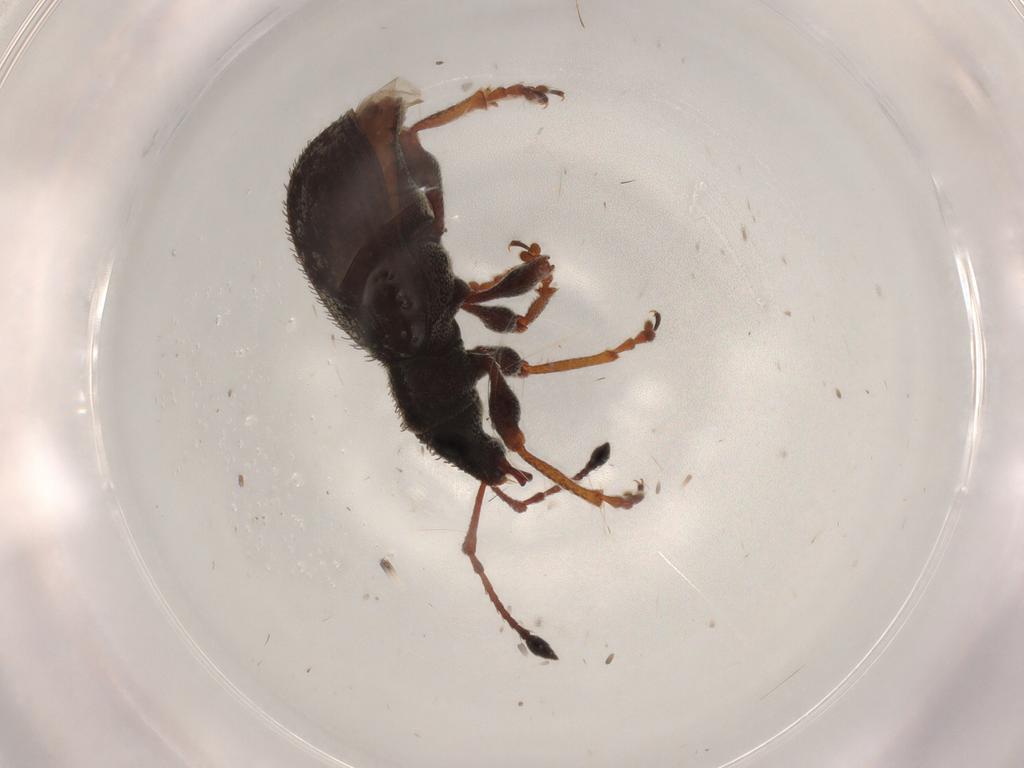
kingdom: Animalia
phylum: Arthropoda
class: Insecta
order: Coleoptera
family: Curculionidae
